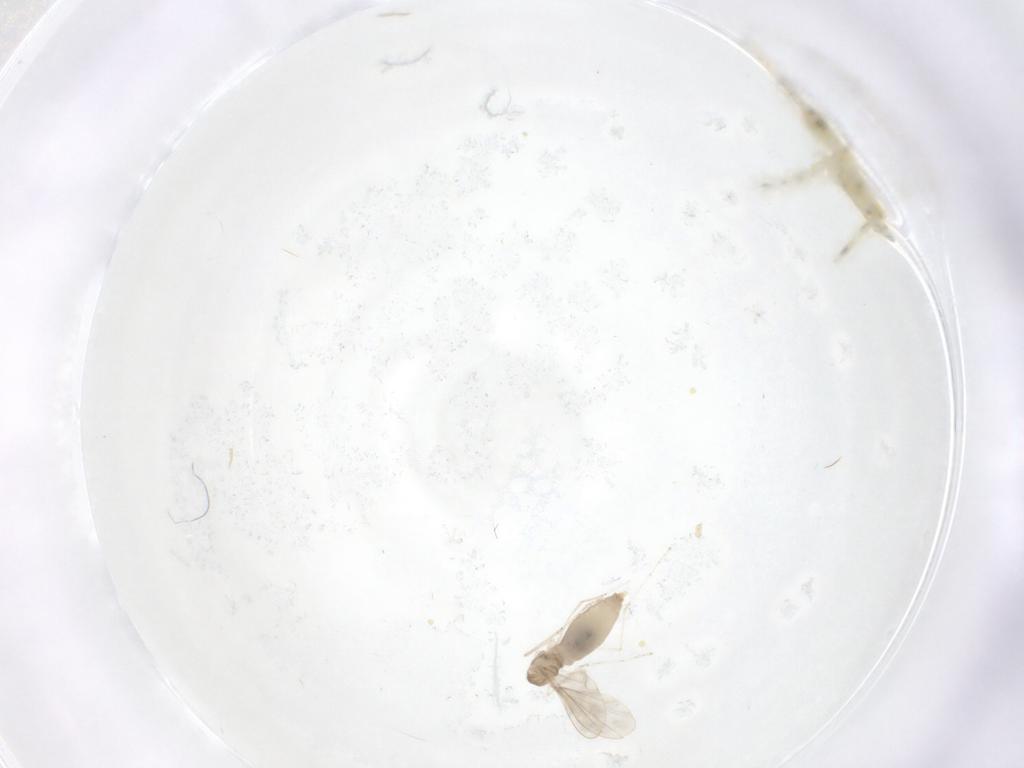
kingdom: Animalia
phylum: Arthropoda
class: Insecta
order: Diptera
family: Cecidomyiidae
